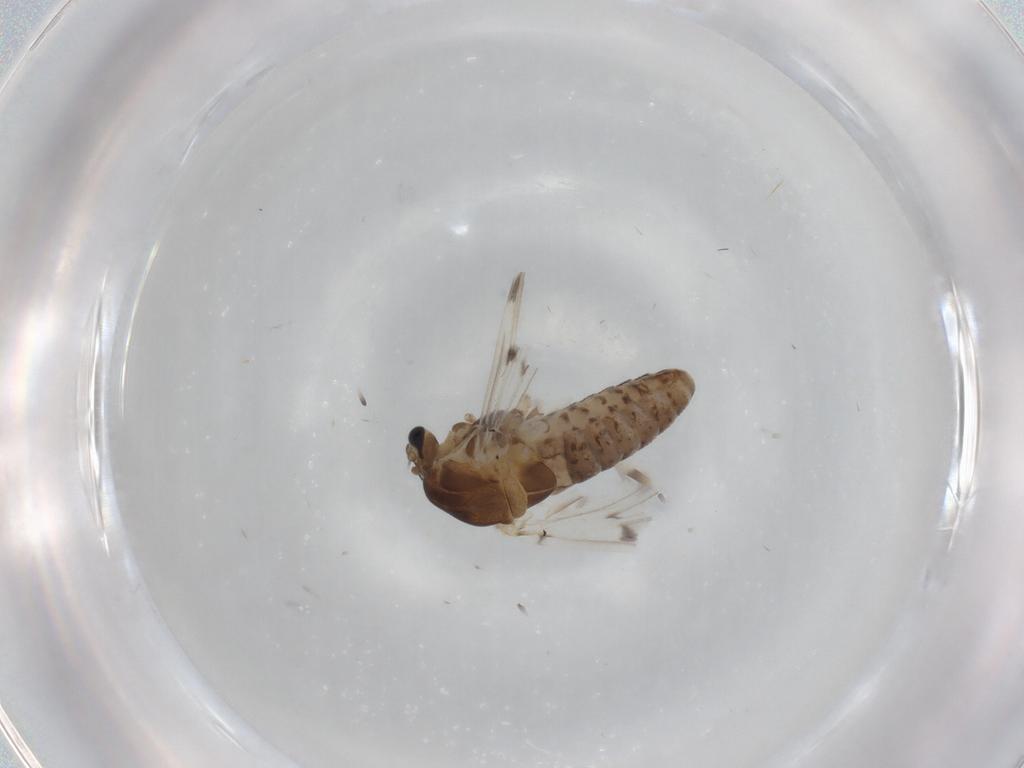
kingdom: Animalia
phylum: Arthropoda
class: Insecta
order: Diptera
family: Chironomidae
